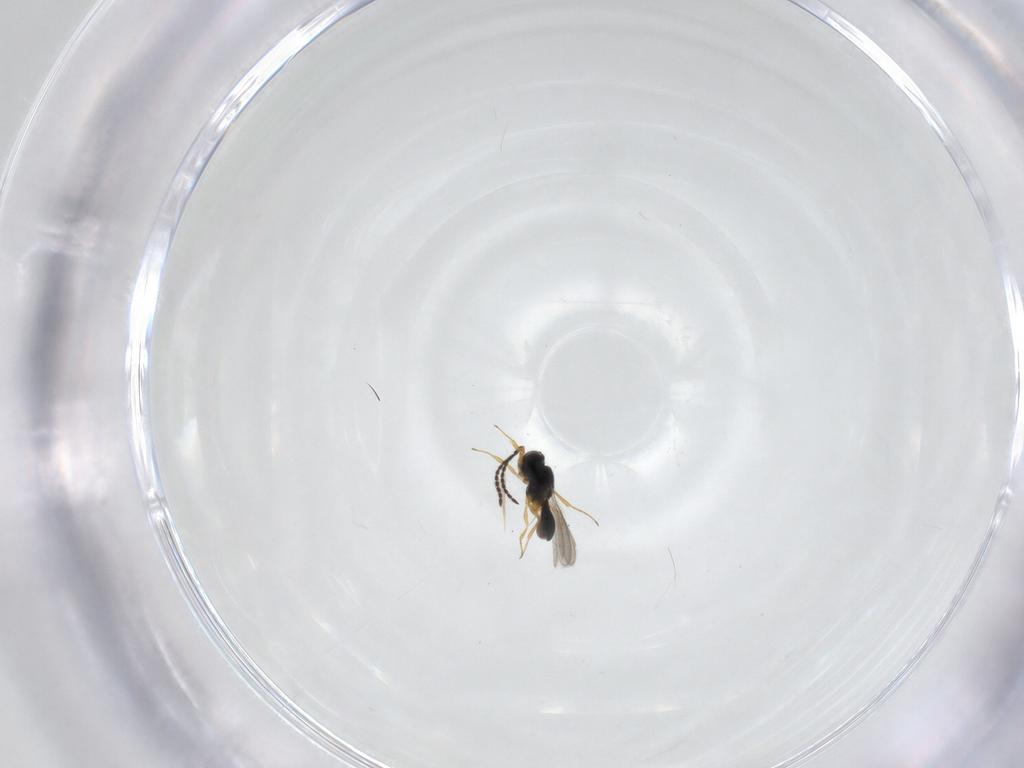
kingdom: Animalia
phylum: Arthropoda
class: Insecta
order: Hymenoptera
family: Scelionidae
